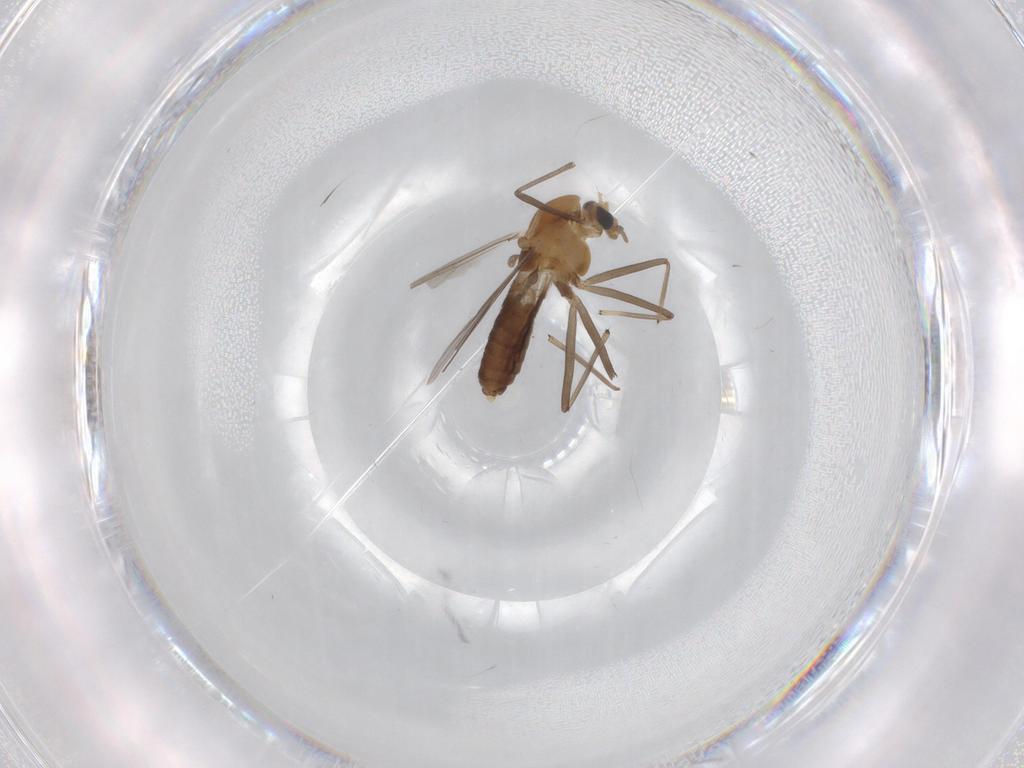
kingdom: Animalia
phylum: Arthropoda
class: Insecta
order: Diptera
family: Chironomidae
